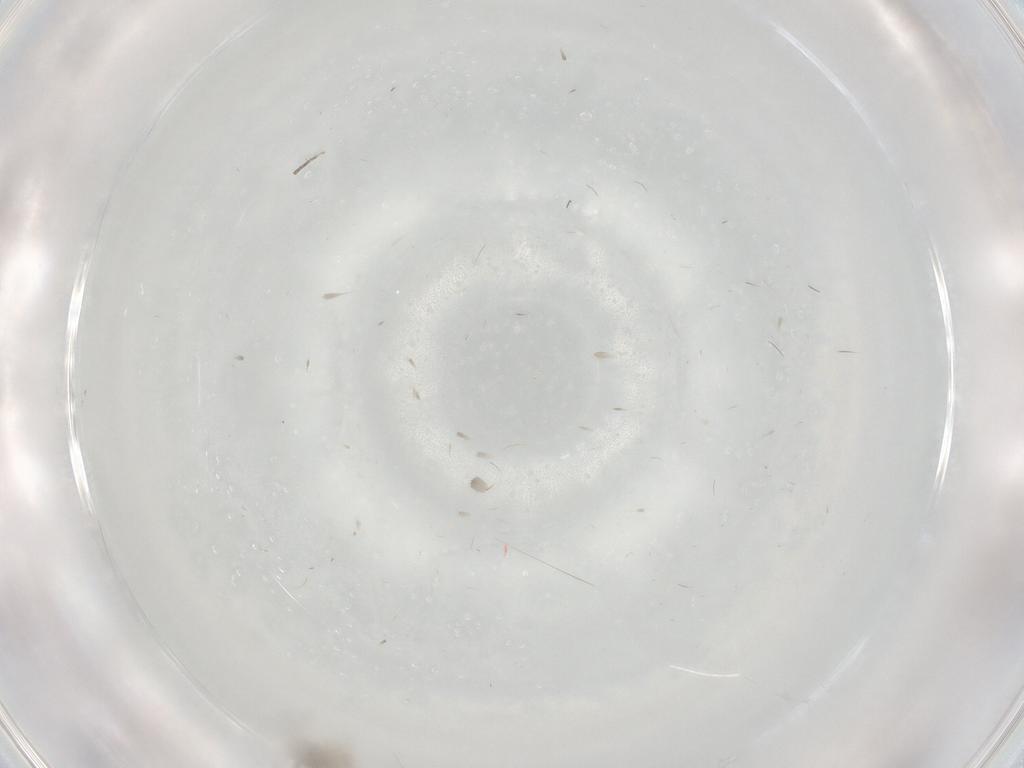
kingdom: Animalia
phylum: Arthropoda
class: Insecta
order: Diptera
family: Cecidomyiidae
